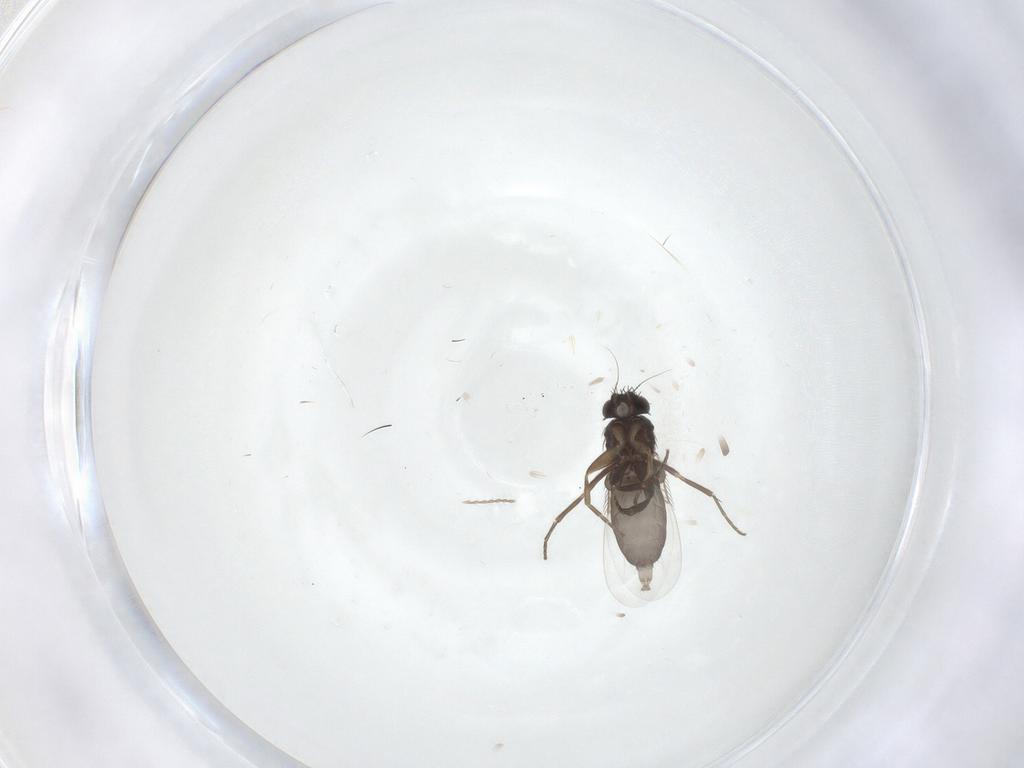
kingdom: Animalia
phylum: Arthropoda
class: Insecta
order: Diptera
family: Phoridae
